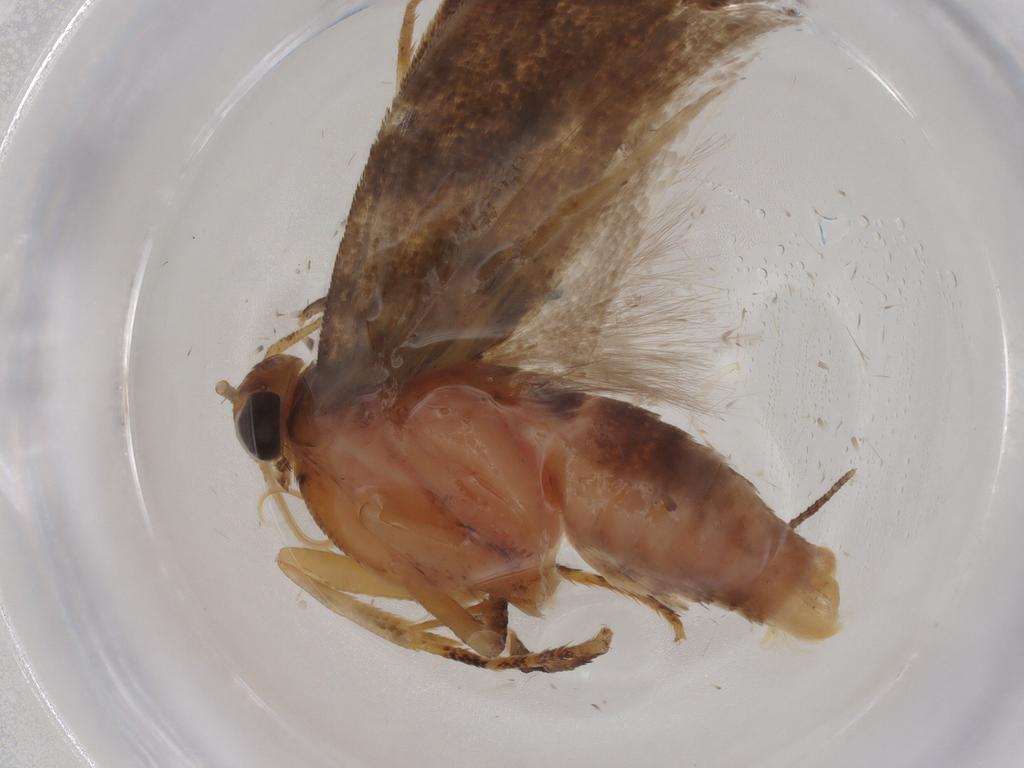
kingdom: Animalia
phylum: Arthropoda
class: Insecta
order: Lepidoptera
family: Gelechiidae
